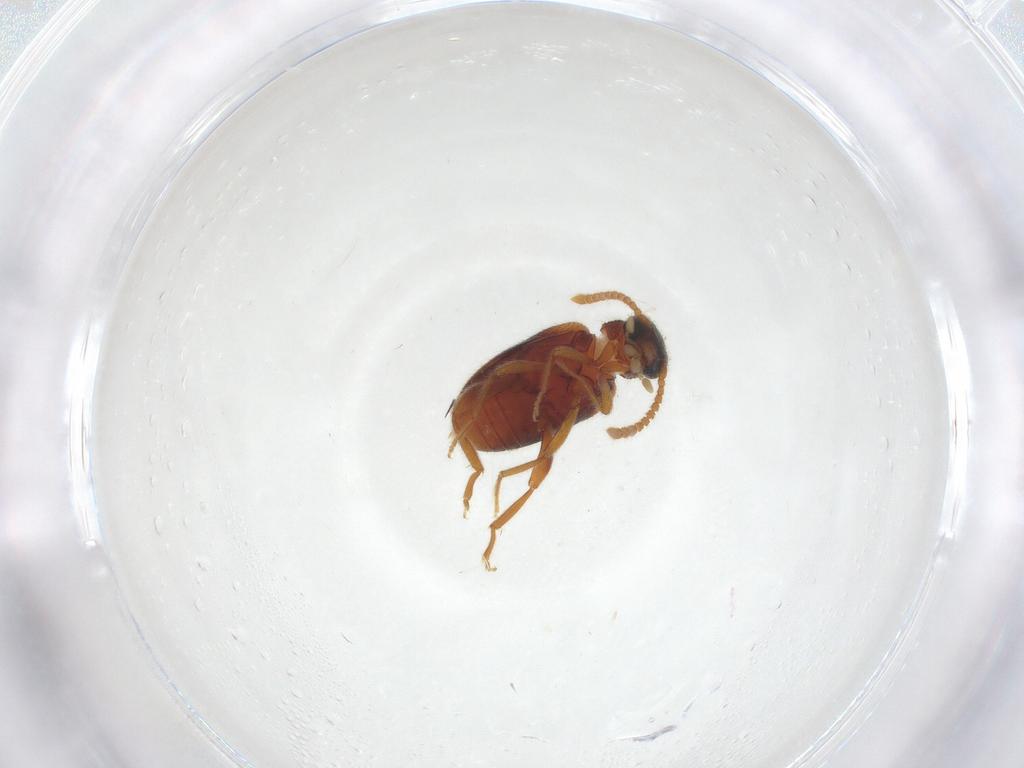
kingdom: Animalia
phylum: Arthropoda
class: Insecta
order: Coleoptera
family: Aderidae
